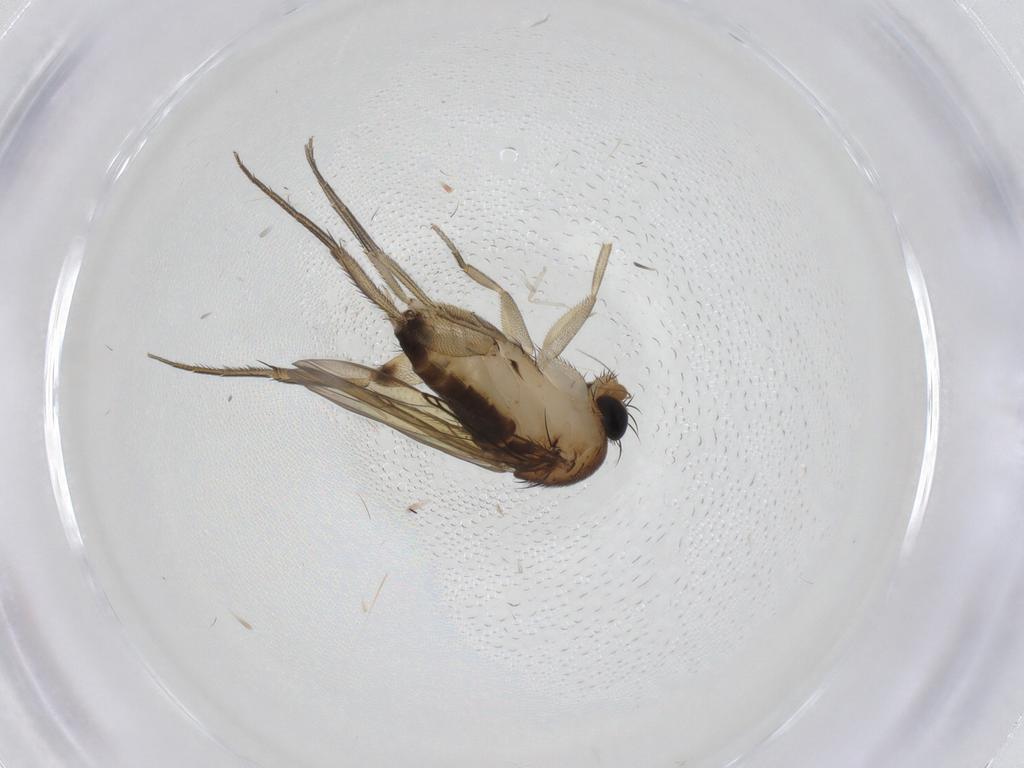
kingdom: Animalia
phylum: Arthropoda
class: Insecta
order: Diptera
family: Phoridae
